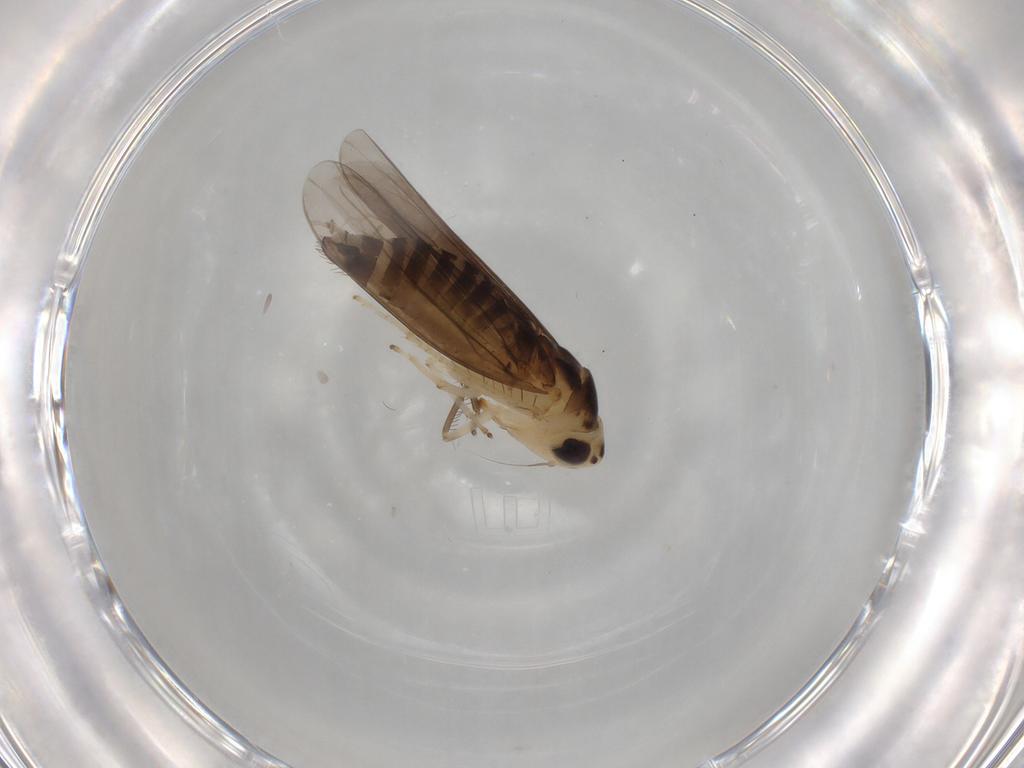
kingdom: Animalia
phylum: Arthropoda
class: Insecta
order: Hemiptera
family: Cicadellidae
